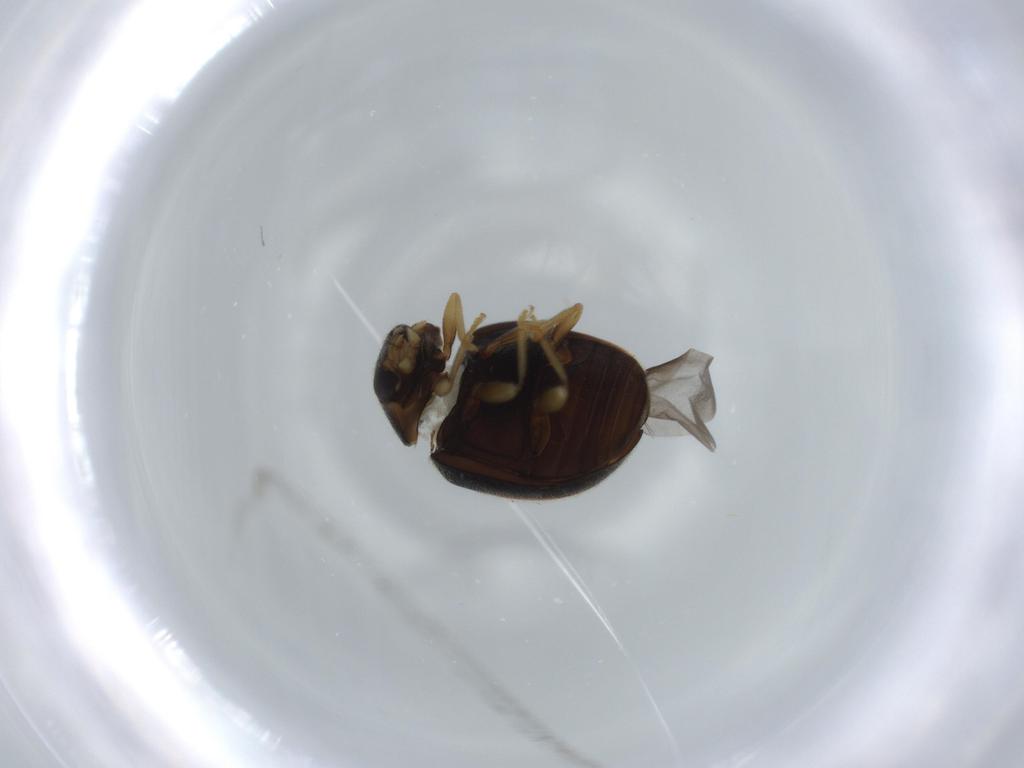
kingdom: Animalia
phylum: Arthropoda
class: Insecta
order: Coleoptera
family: Coccinellidae
